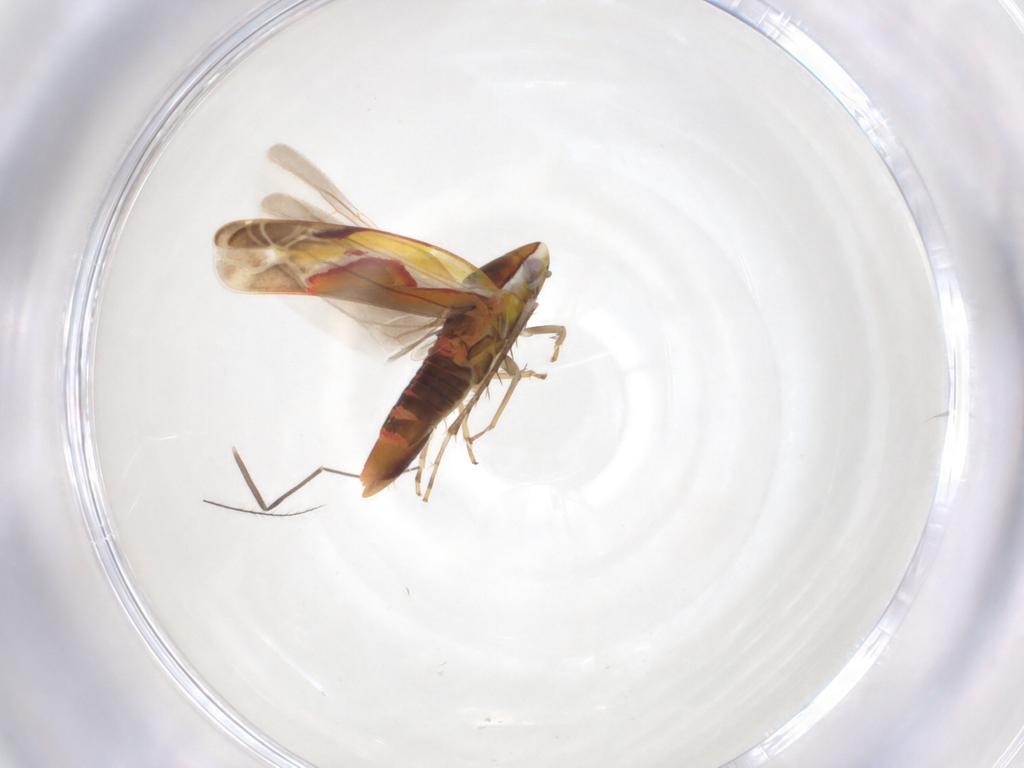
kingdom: Animalia
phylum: Arthropoda
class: Insecta
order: Hemiptera
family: Cicadellidae
